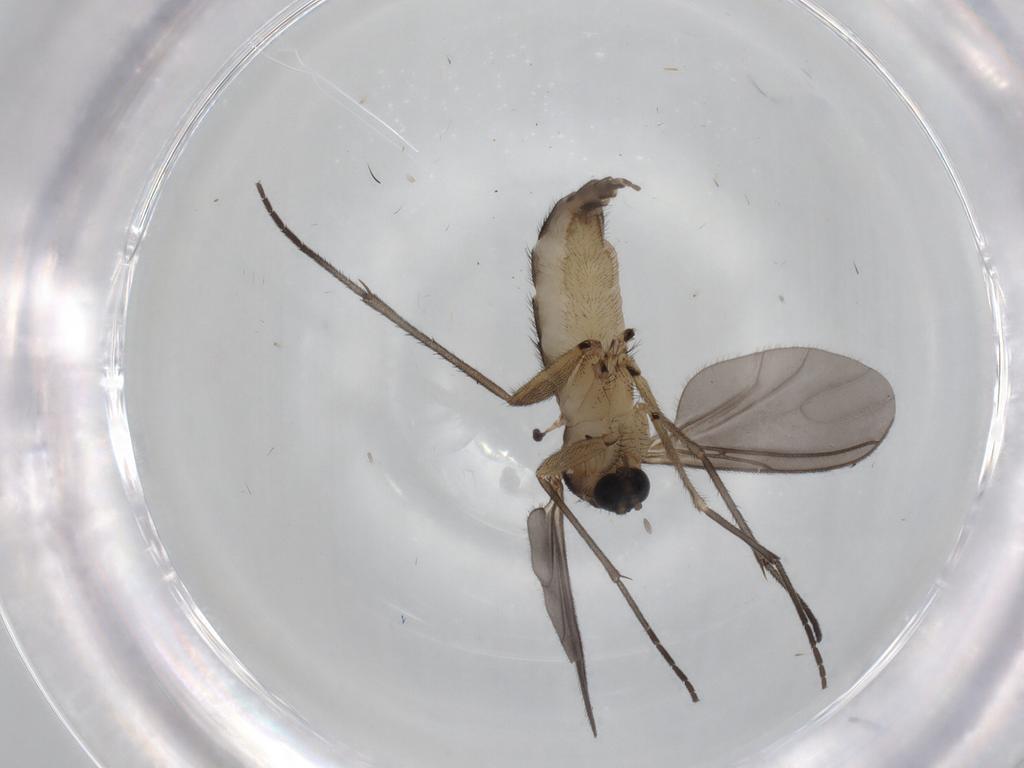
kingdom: Animalia
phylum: Arthropoda
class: Insecta
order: Diptera
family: Sciaridae
